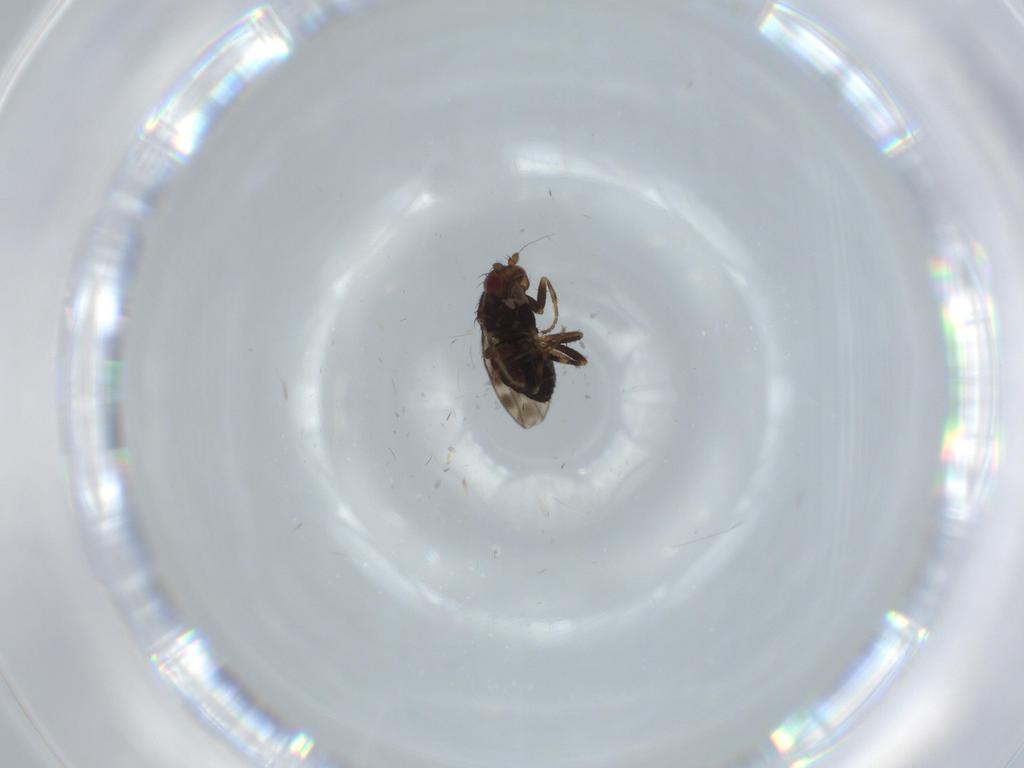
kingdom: Animalia
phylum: Arthropoda
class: Insecta
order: Diptera
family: Sphaeroceridae
